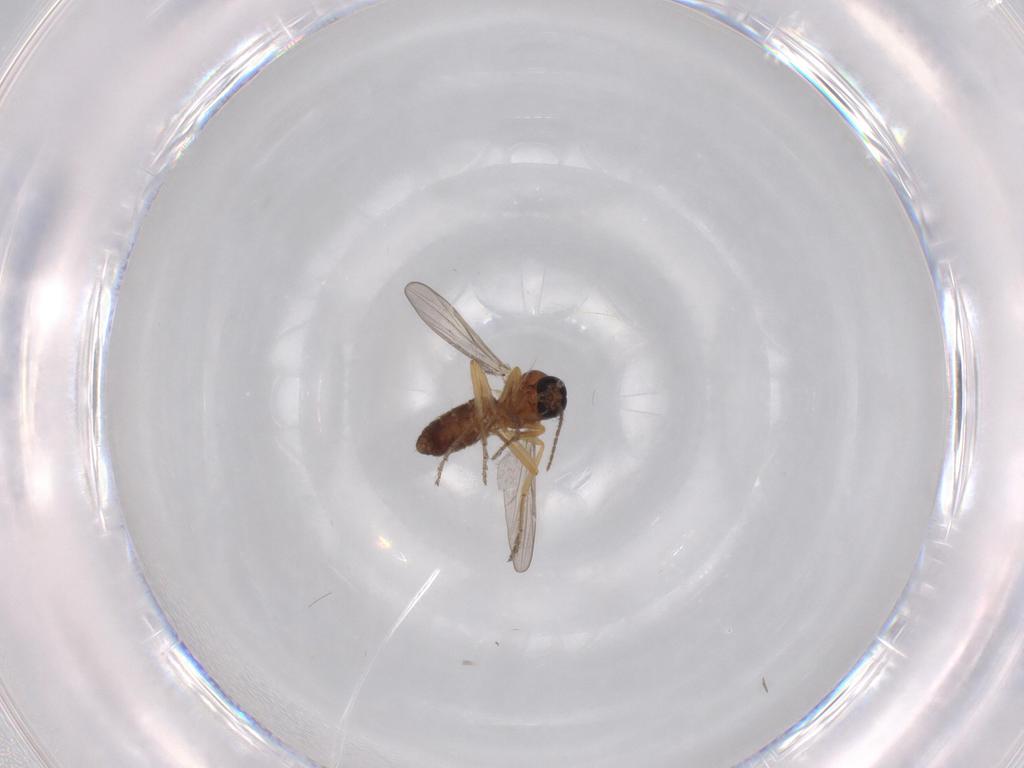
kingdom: Animalia
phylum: Arthropoda
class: Insecta
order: Diptera
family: Ceratopogonidae
